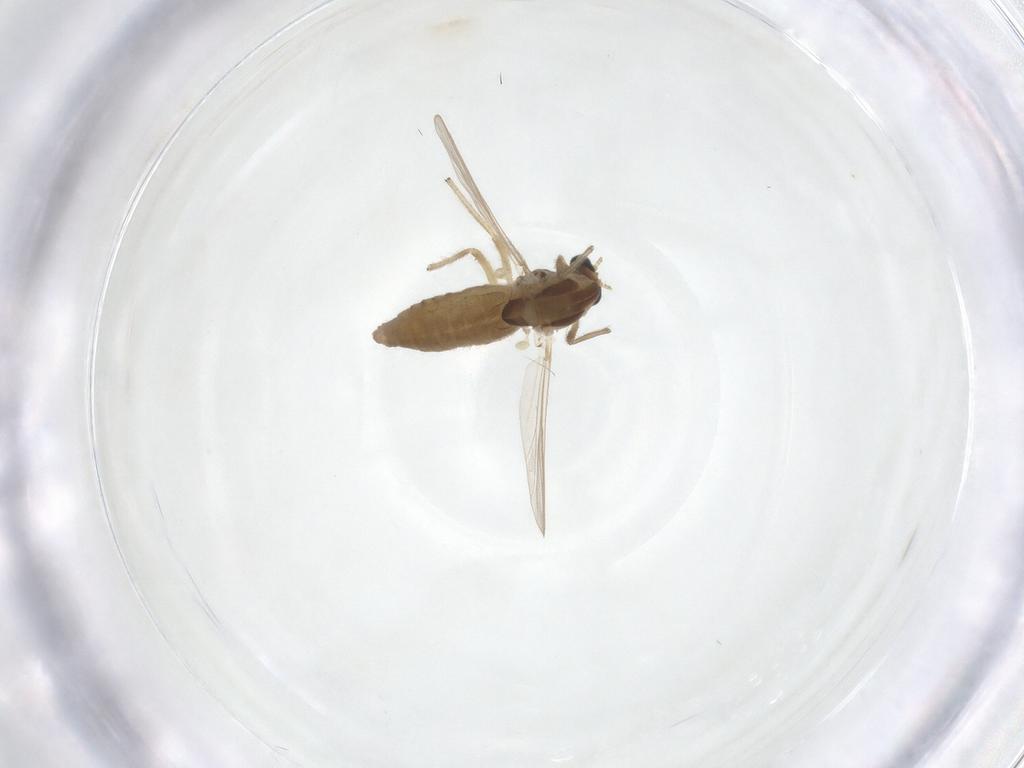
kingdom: Animalia
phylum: Arthropoda
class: Insecta
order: Diptera
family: Chironomidae
